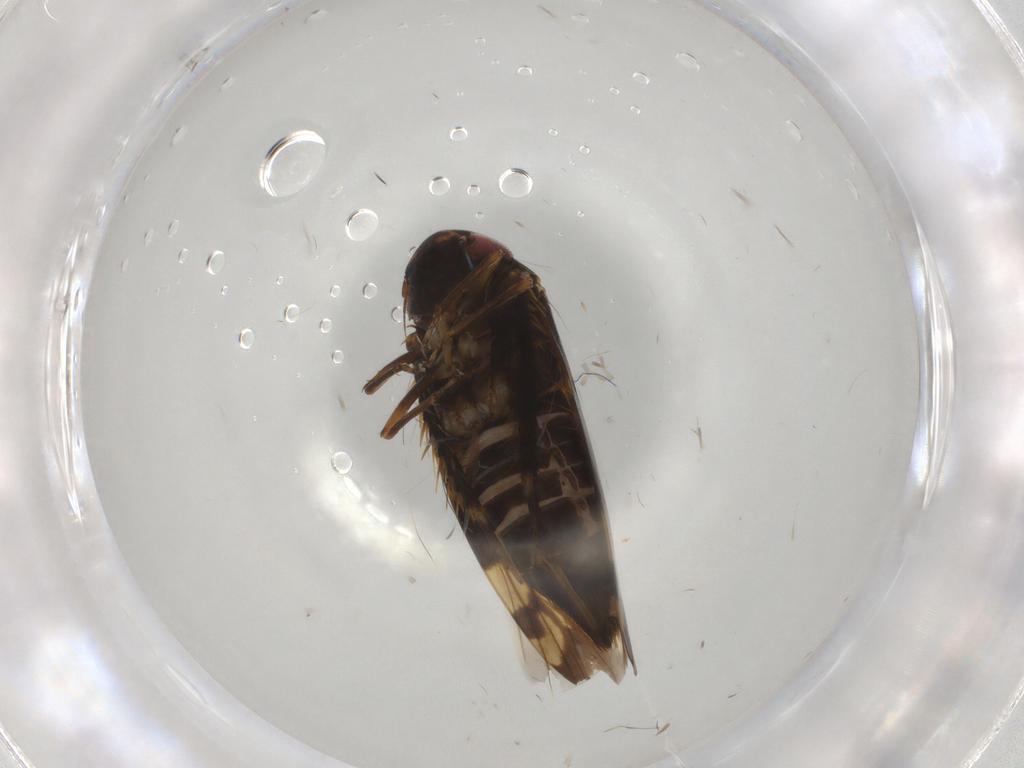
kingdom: Animalia
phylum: Arthropoda
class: Insecta
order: Hemiptera
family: Cicadellidae
